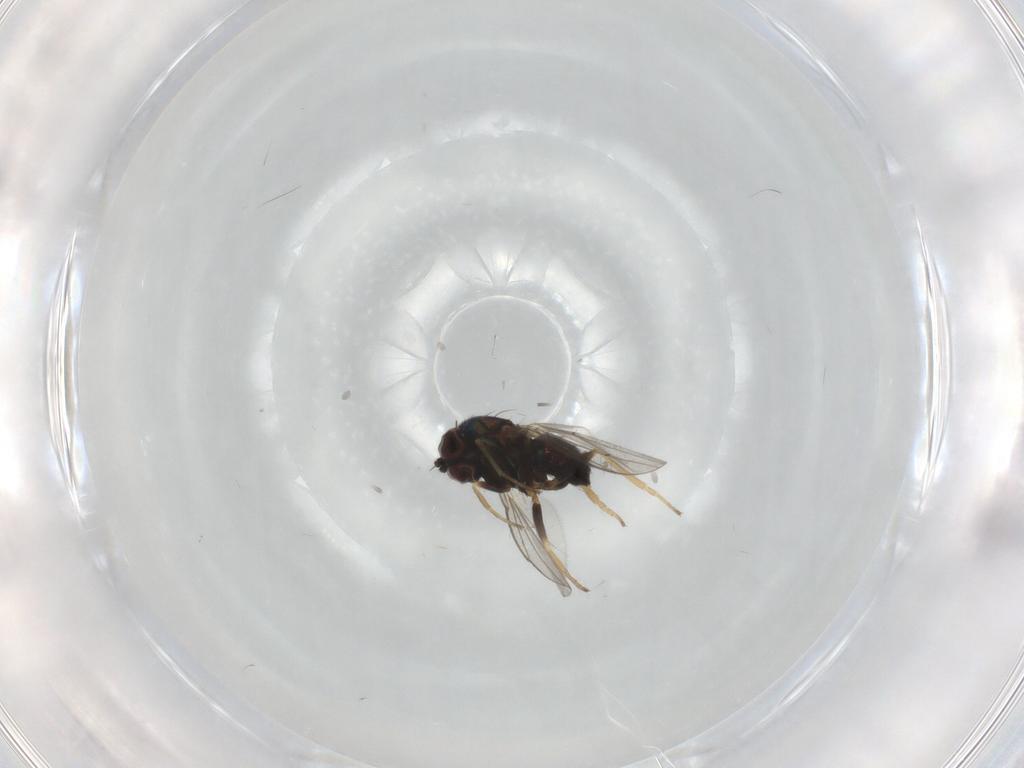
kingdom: Animalia
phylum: Arthropoda
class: Insecta
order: Diptera
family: Dolichopodidae
